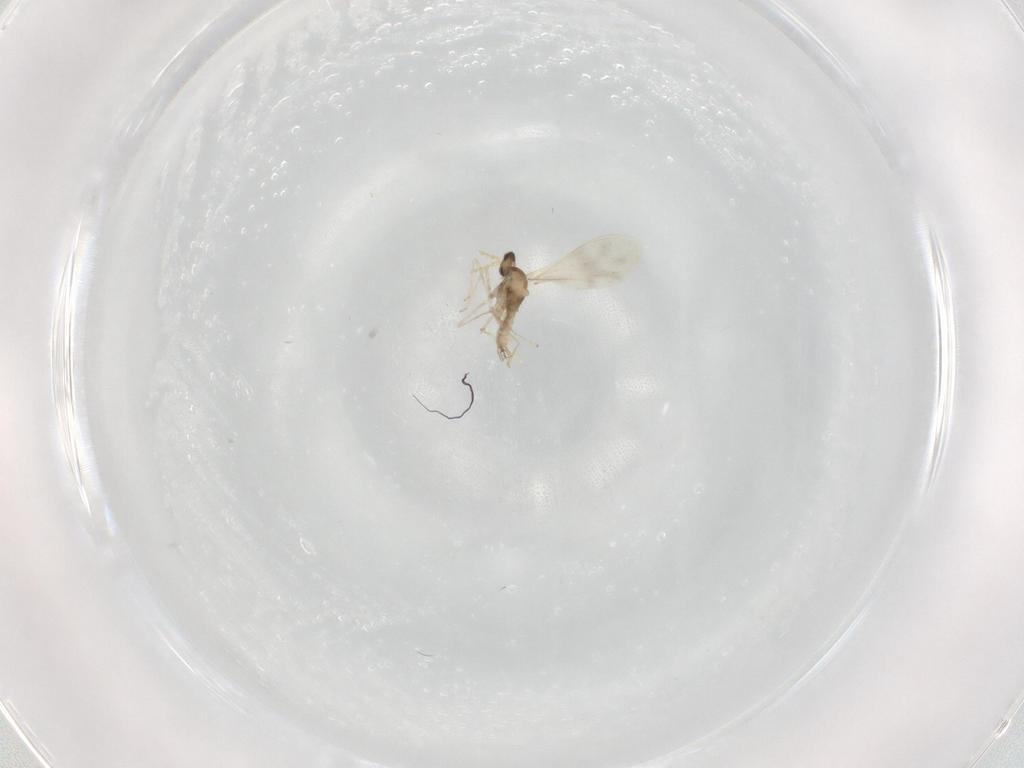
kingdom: Animalia
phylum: Arthropoda
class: Insecta
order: Diptera
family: Cecidomyiidae
